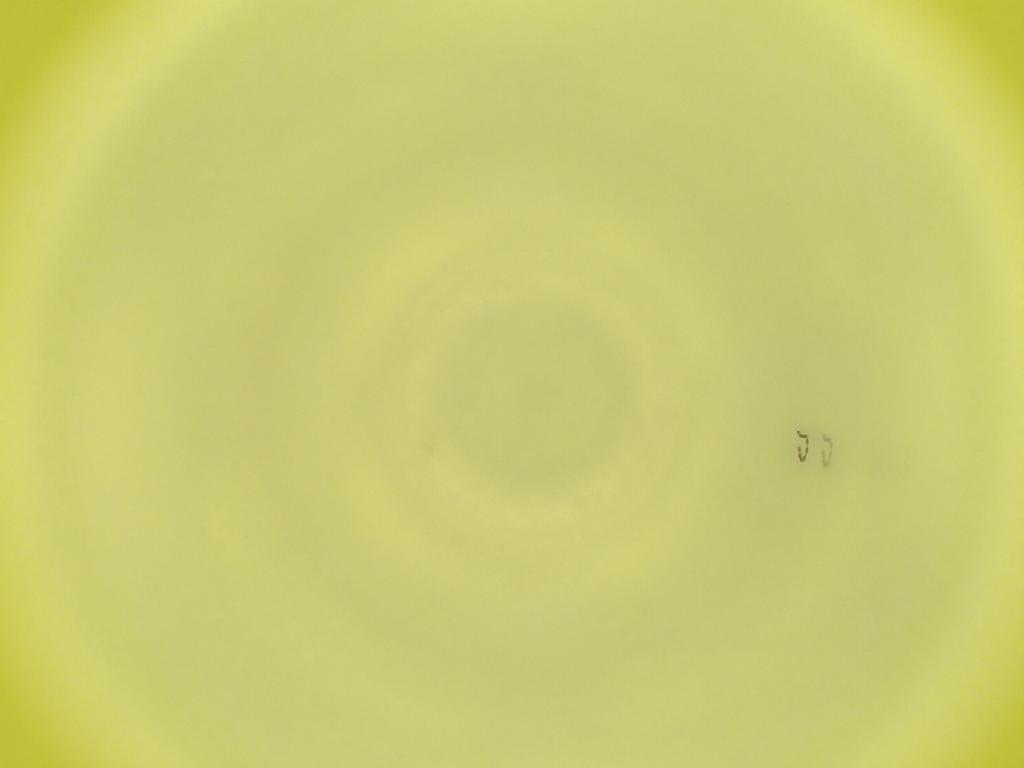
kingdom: Animalia
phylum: Arthropoda
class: Insecta
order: Diptera
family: Cecidomyiidae
